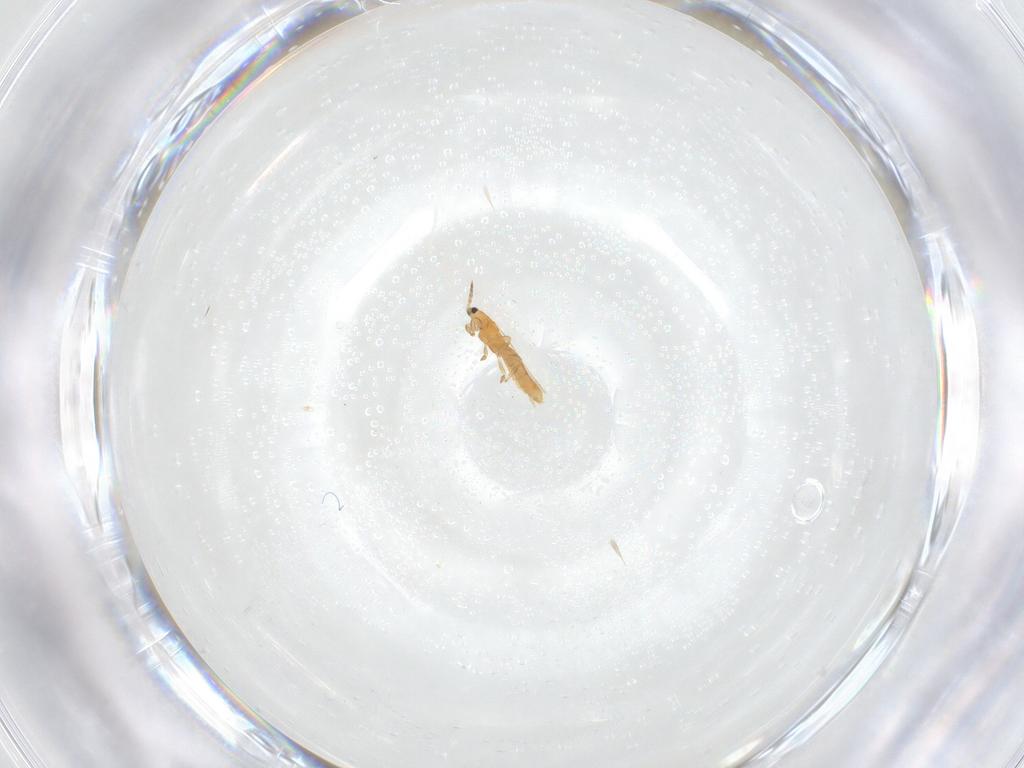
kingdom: Animalia
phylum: Arthropoda
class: Insecta
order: Thysanoptera
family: Thripidae
